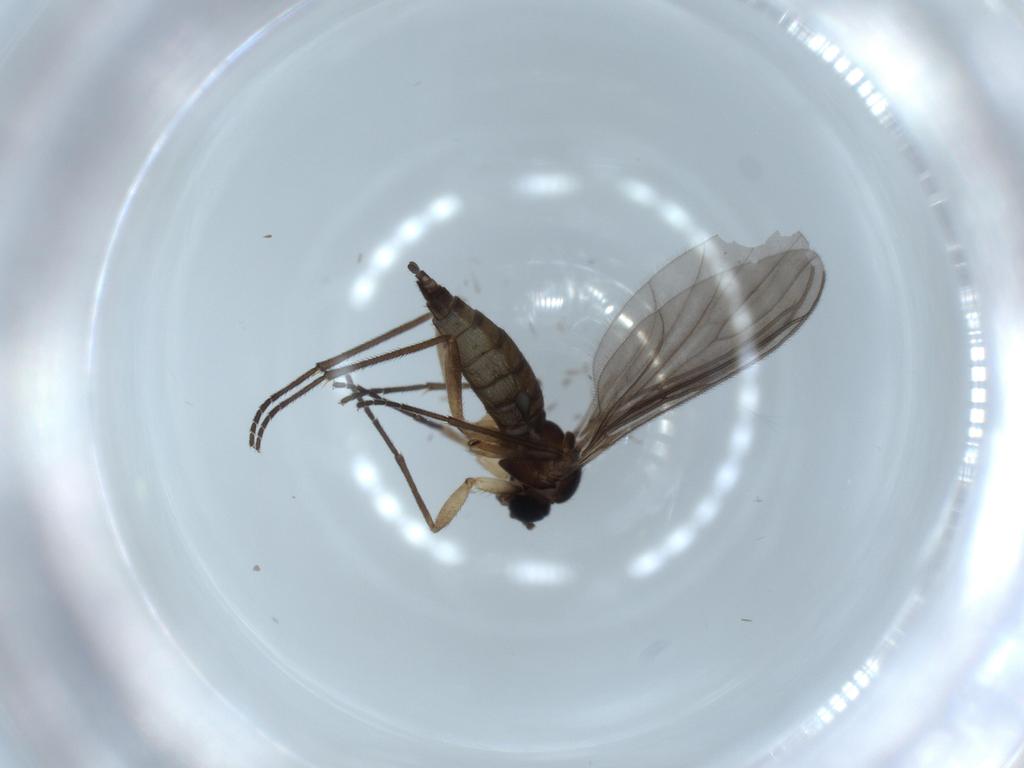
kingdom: Animalia
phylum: Arthropoda
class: Insecta
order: Diptera
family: Sciaridae
